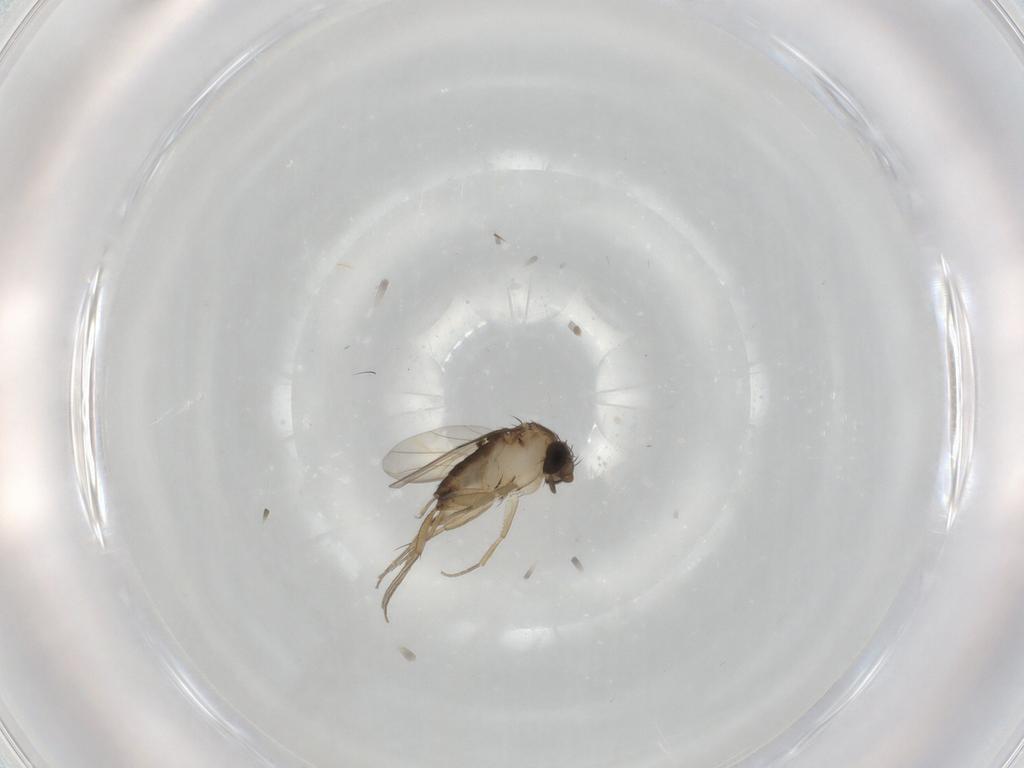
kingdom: Animalia
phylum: Arthropoda
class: Insecta
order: Diptera
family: Phoridae
